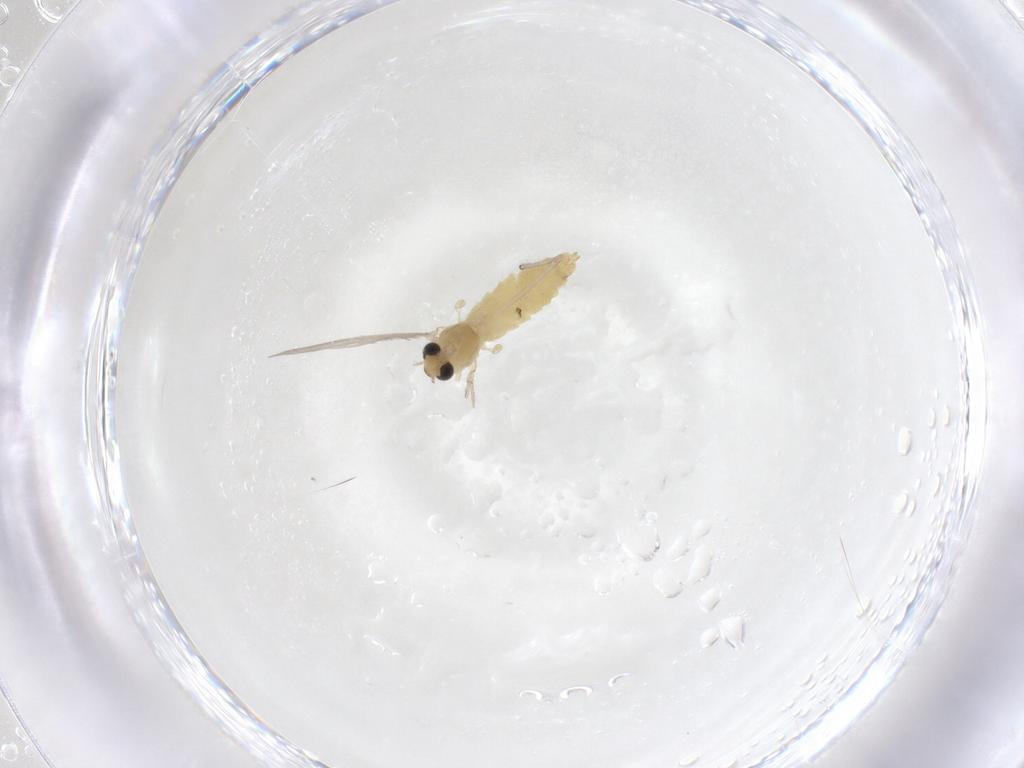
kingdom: Animalia
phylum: Arthropoda
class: Insecta
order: Diptera
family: Chironomidae
